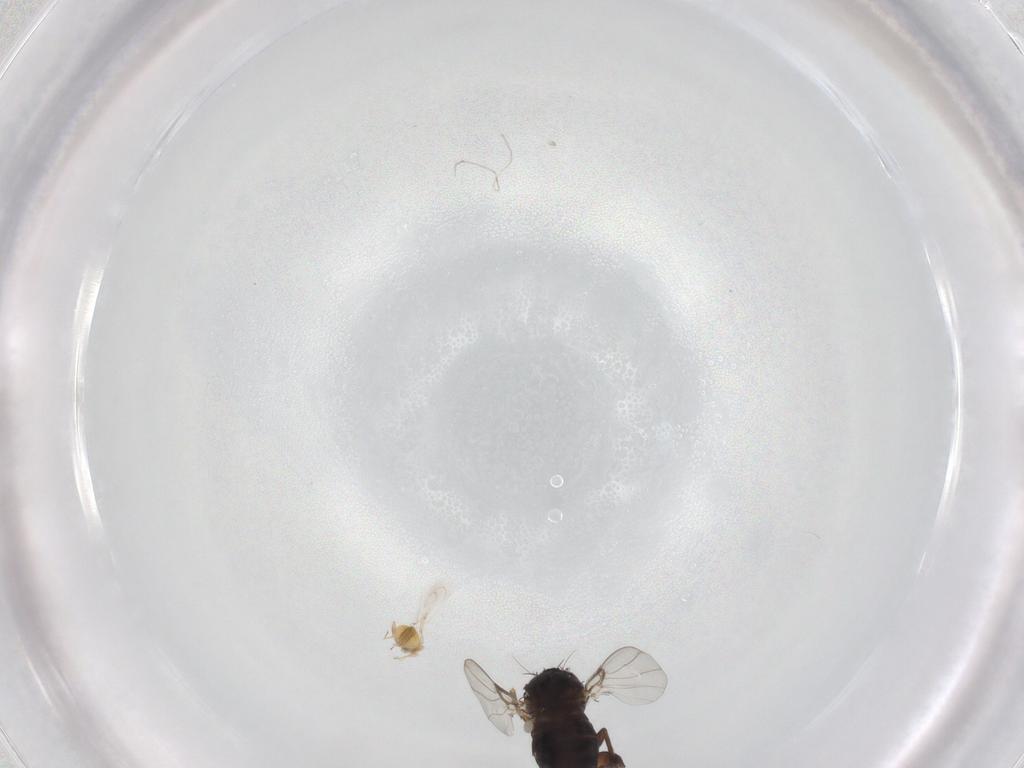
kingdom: Animalia
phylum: Arthropoda
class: Insecta
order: Diptera
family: Phoridae
